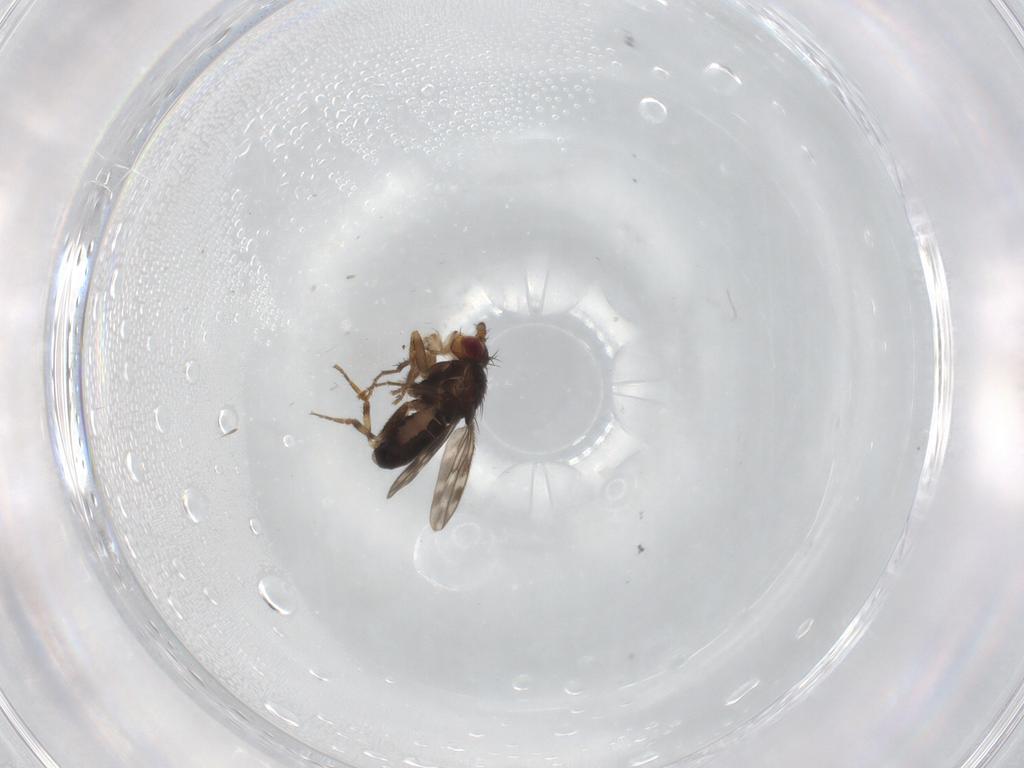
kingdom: Animalia
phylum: Arthropoda
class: Insecta
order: Diptera
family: Sphaeroceridae
